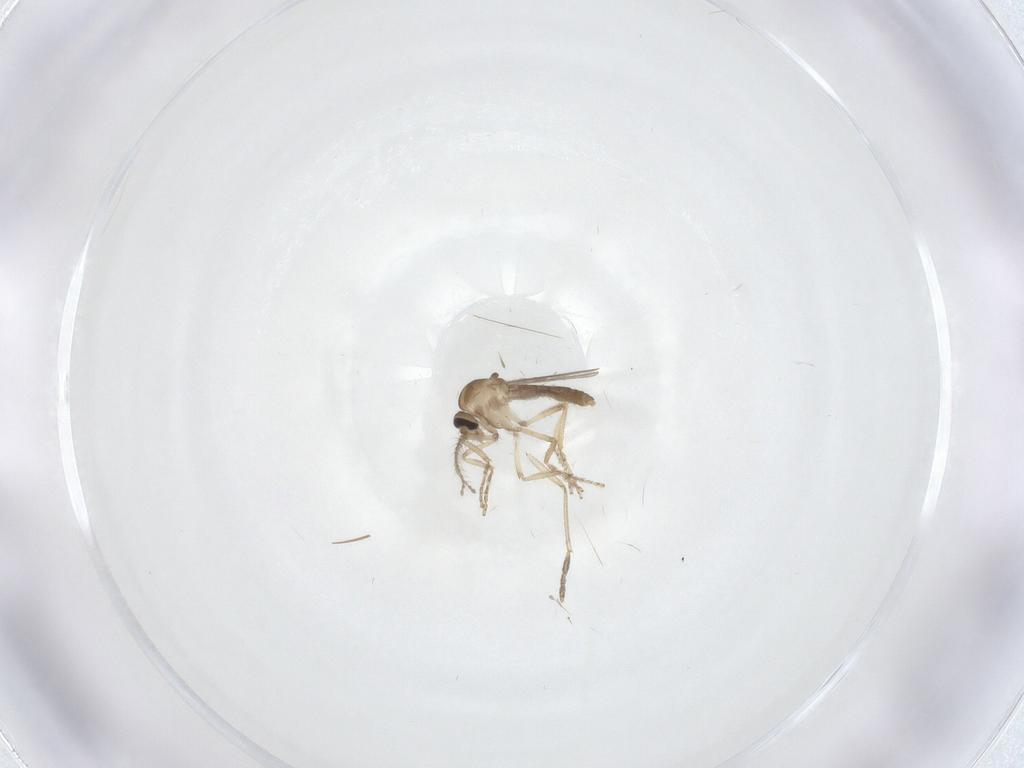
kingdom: Animalia
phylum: Arthropoda
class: Insecta
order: Diptera
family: Ceratopogonidae
